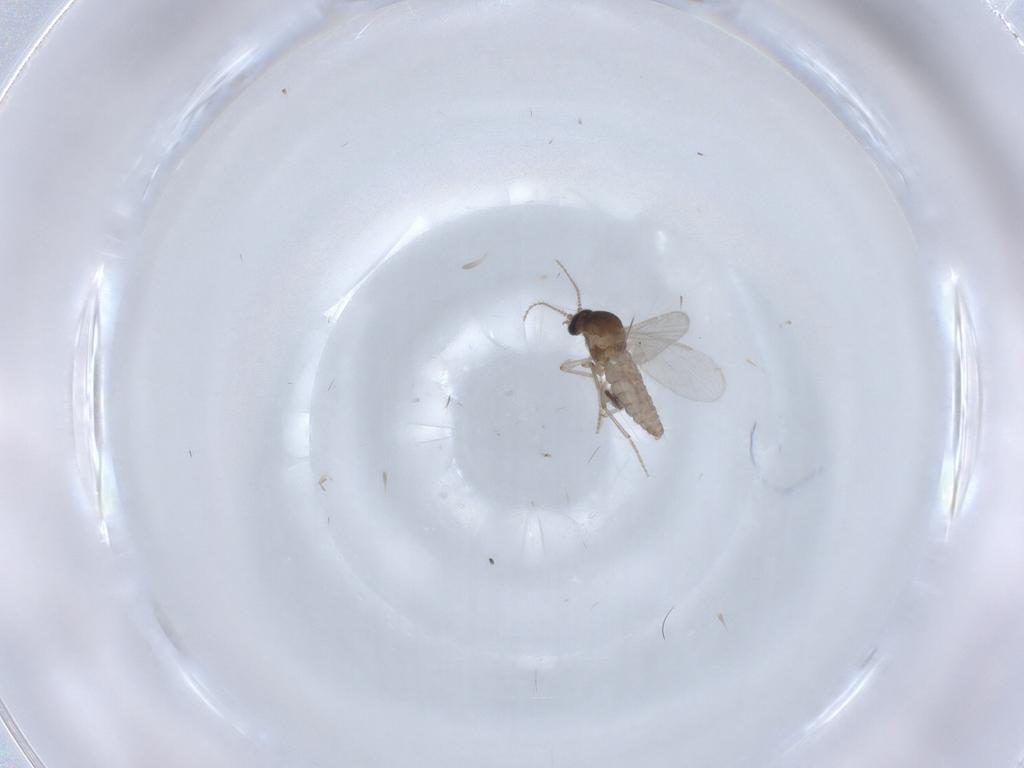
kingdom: Animalia
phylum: Arthropoda
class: Insecta
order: Diptera
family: Ceratopogonidae
